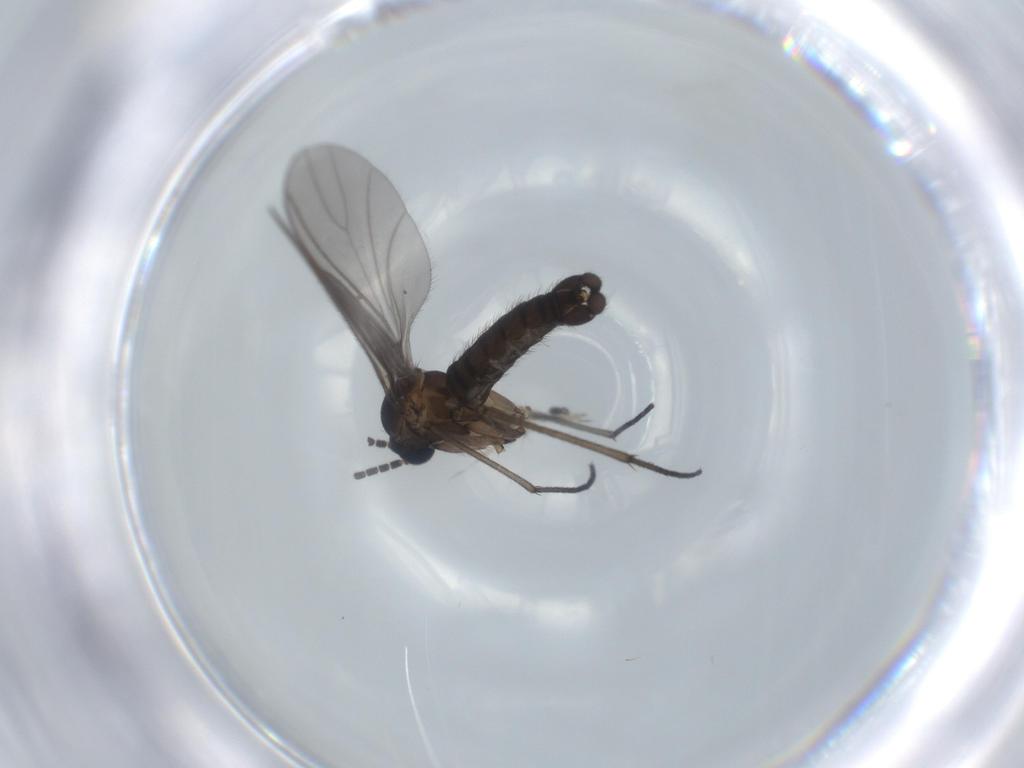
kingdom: Animalia
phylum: Arthropoda
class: Insecta
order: Diptera
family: Sciaridae
